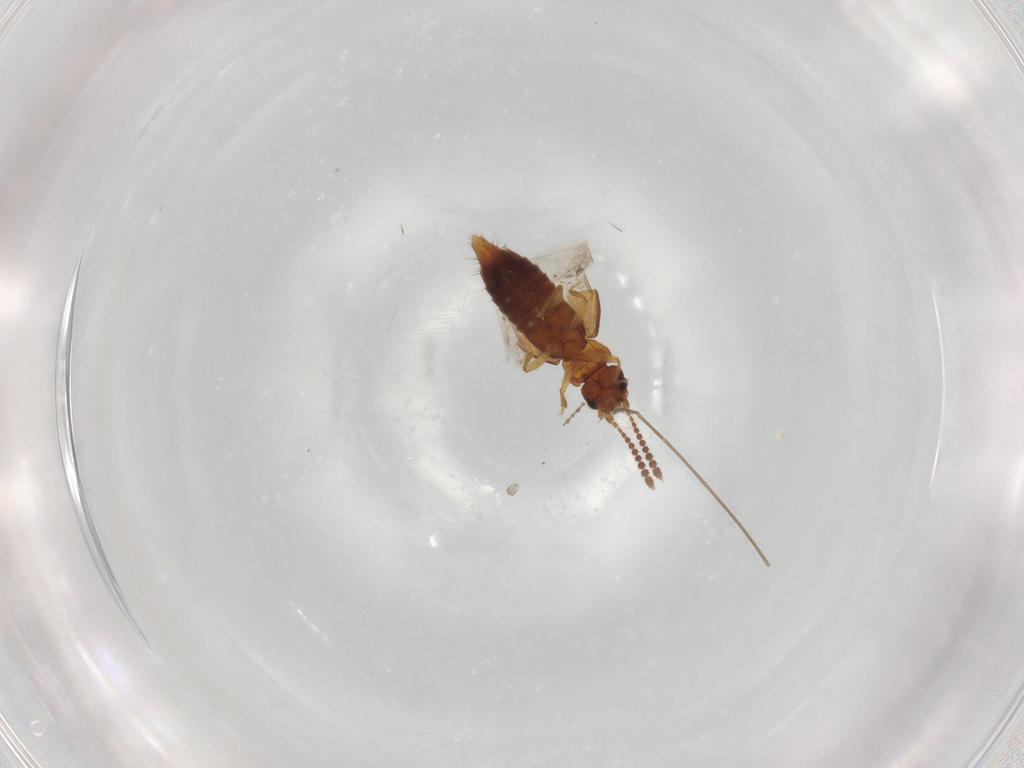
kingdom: Animalia
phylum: Arthropoda
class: Insecta
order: Coleoptera
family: Staphylinidae
